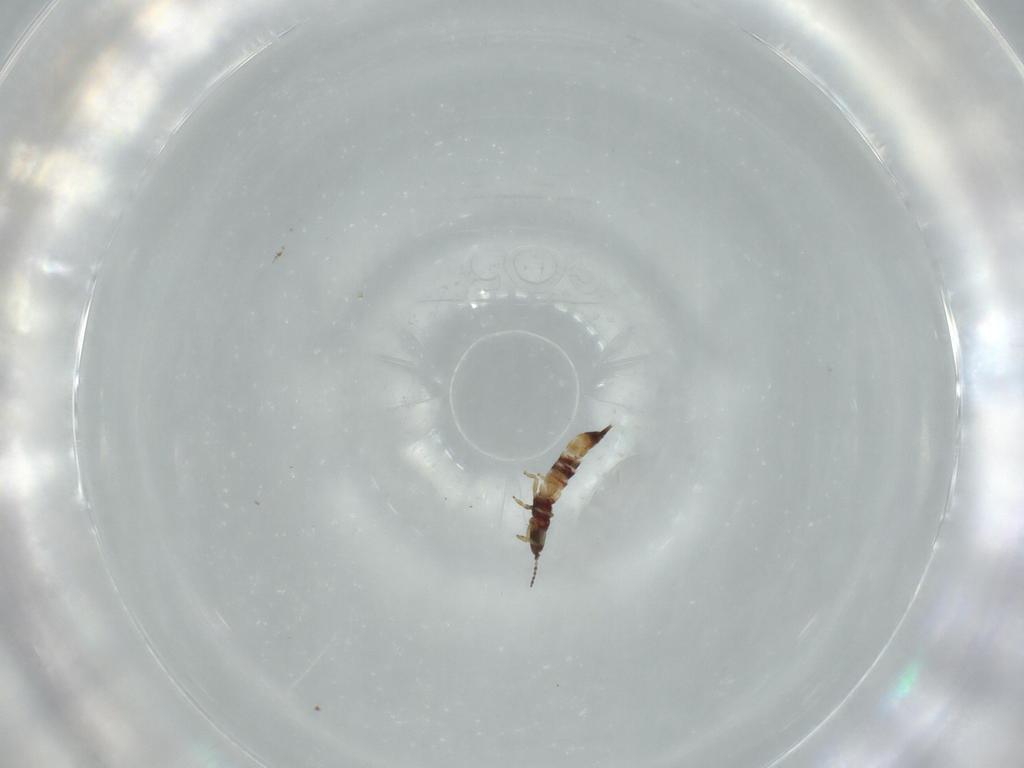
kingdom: Animalia
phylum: Arthropoda
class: Insecta
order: Thysanoptera
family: Phlaeothripidae
